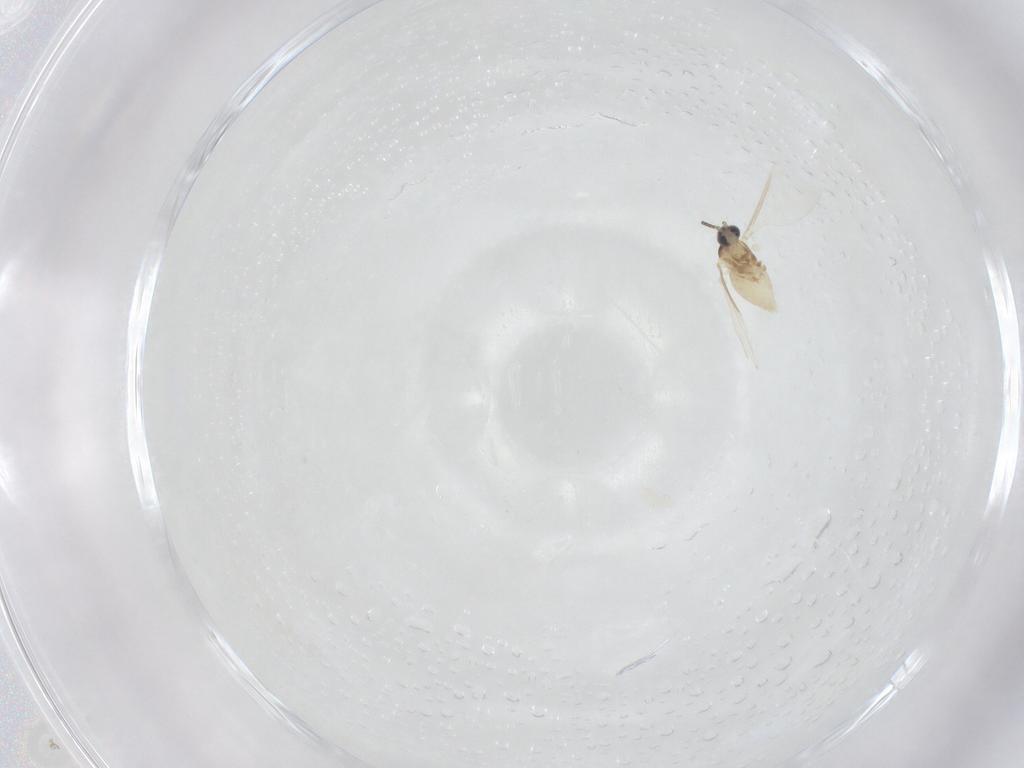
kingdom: Animalia
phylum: Arthropoda
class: Insecta
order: Diptera
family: Cecidomyiidae
